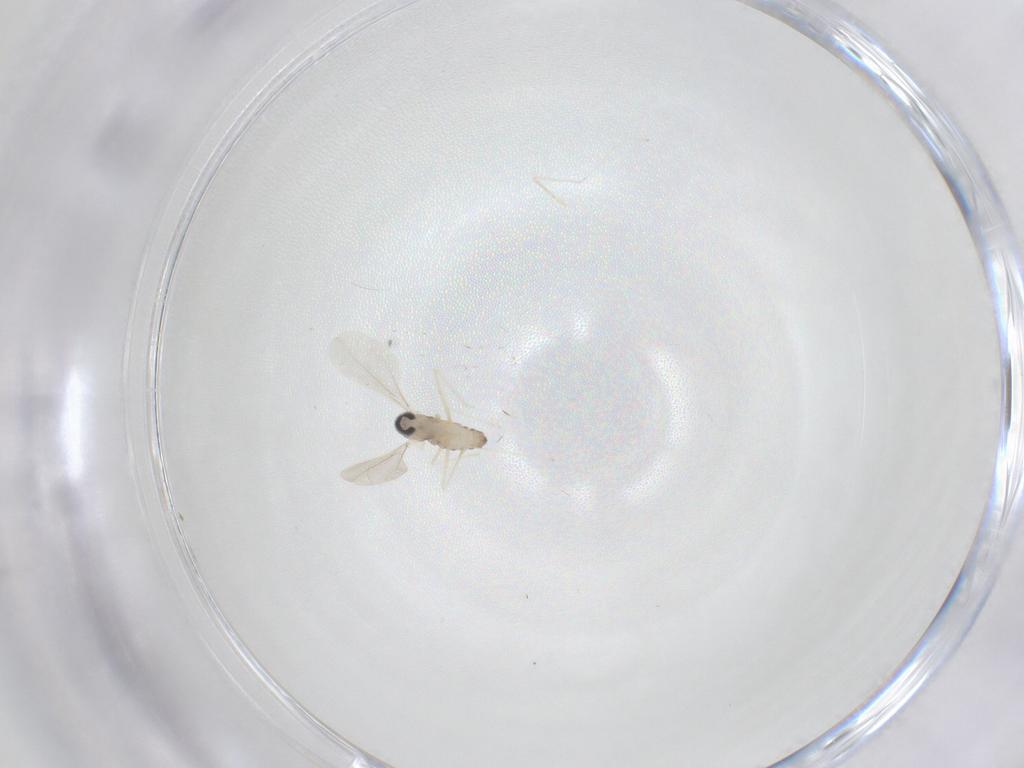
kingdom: Animalia
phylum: Arthropoda
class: Insecta
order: Diptera
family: Cecidomyiidae
